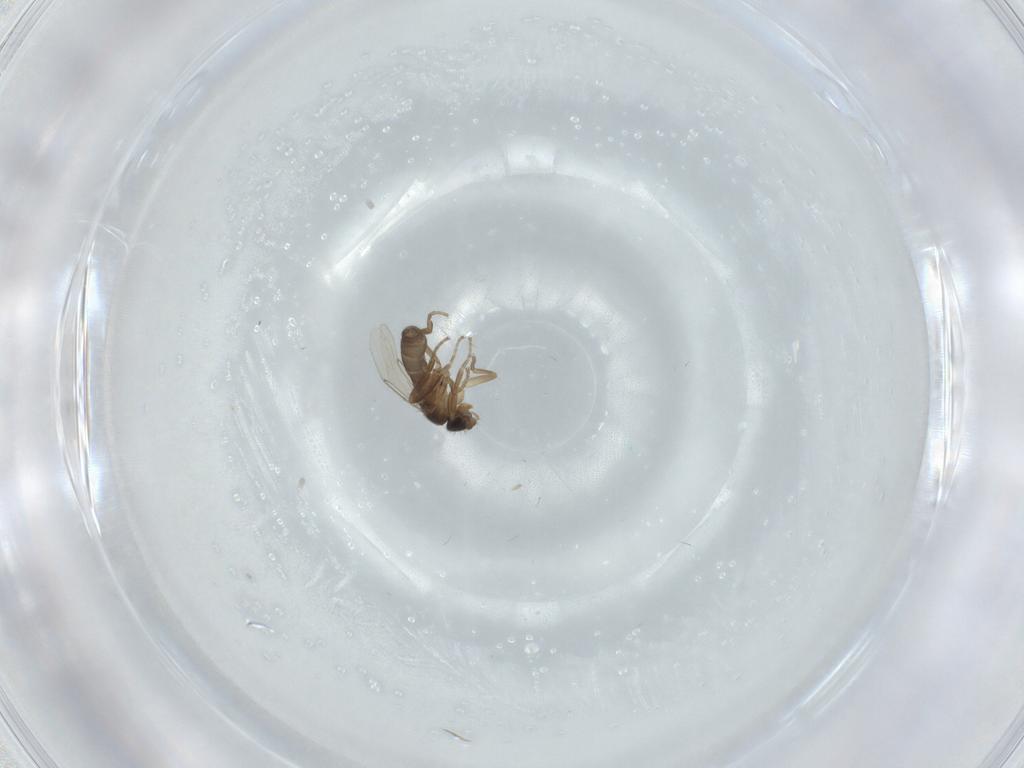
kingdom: Animalia
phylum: Arthropoda
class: Insecta
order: Diptera
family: Phoridae
